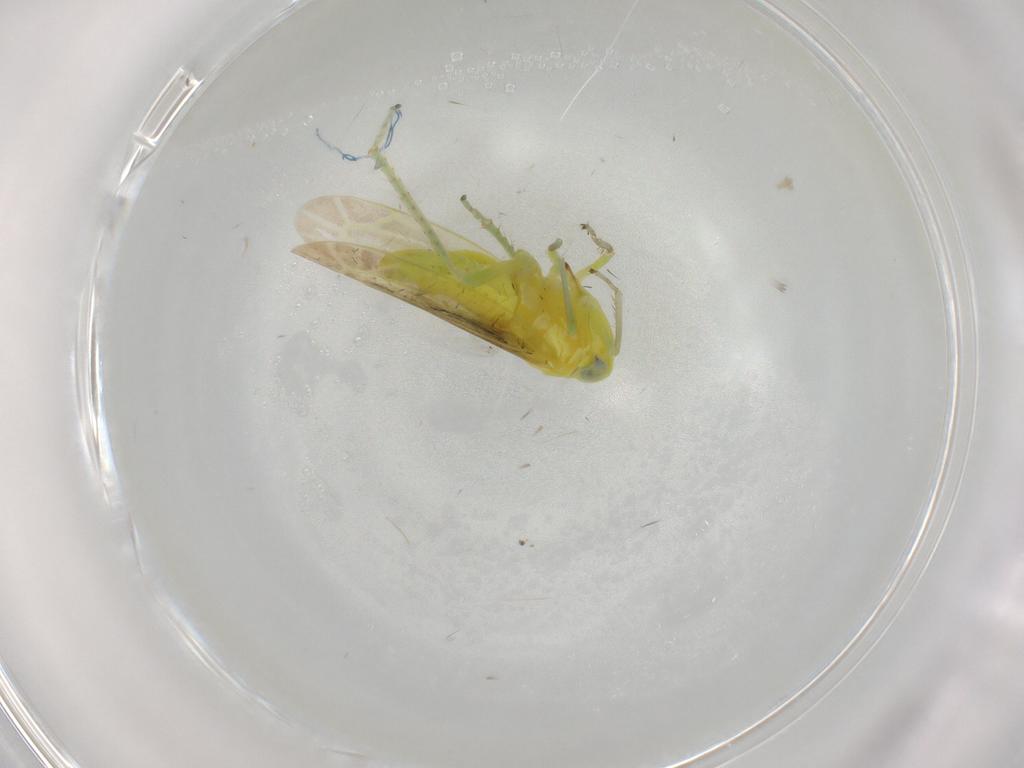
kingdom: Animalia
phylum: Arthropoda
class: Insecta
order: Hemiptera
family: Cicadellidae
